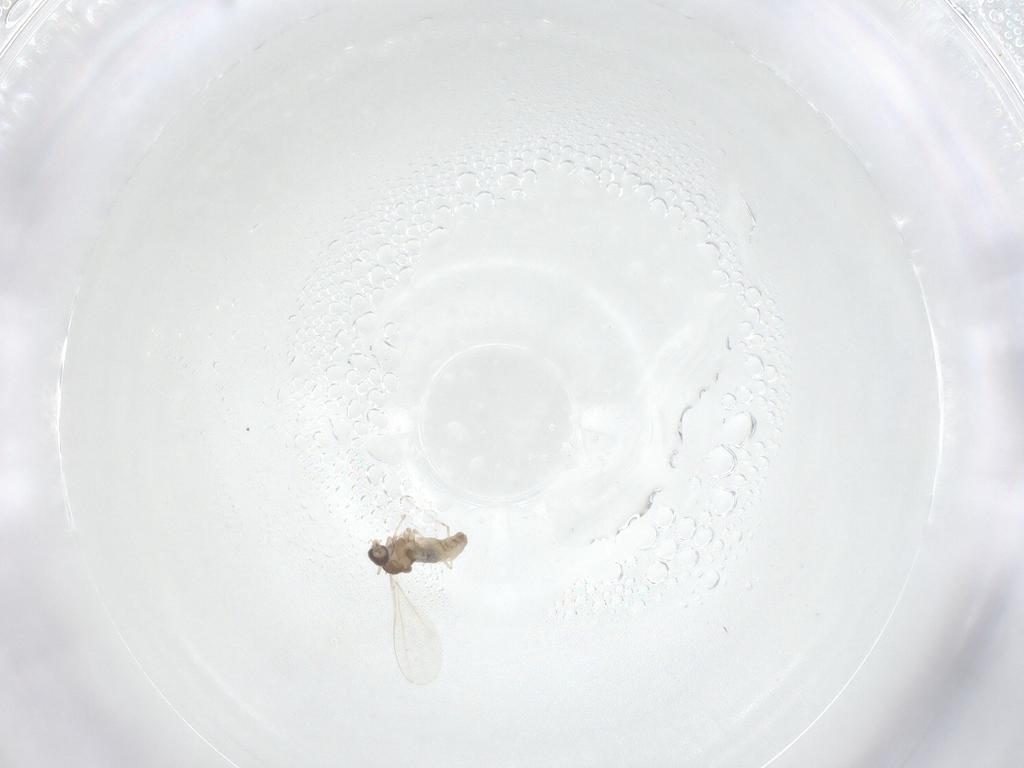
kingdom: Animalia
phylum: Arthropoda
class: Insecta
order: Diptera
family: Cecidomyiidae
